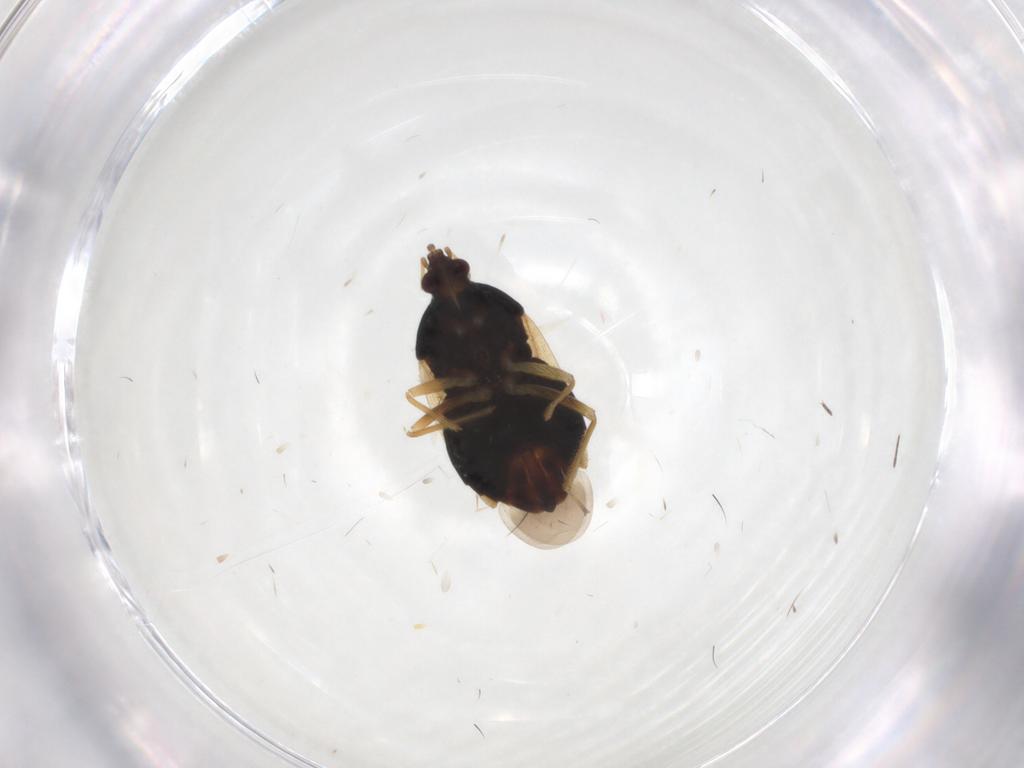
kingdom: Animalia
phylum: Arthropoda
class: Insecta
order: Hemiptera
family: Anthocoridae
